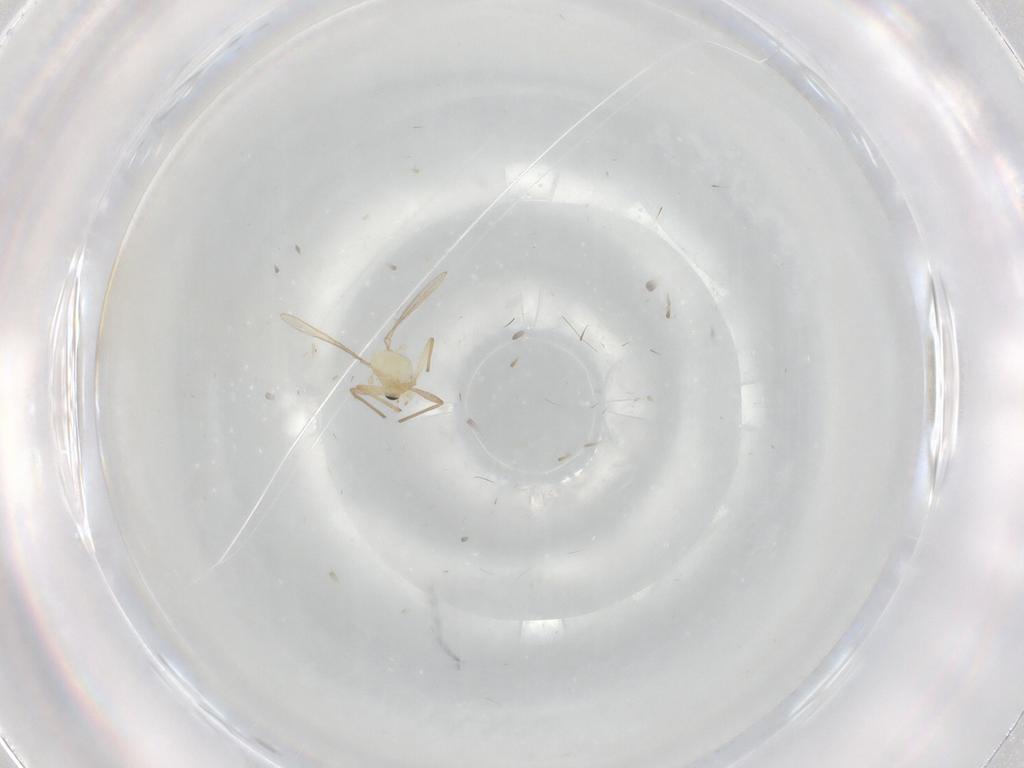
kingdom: Animalia
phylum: Arthropoda
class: Insecta
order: Diptera
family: Chironomidae
